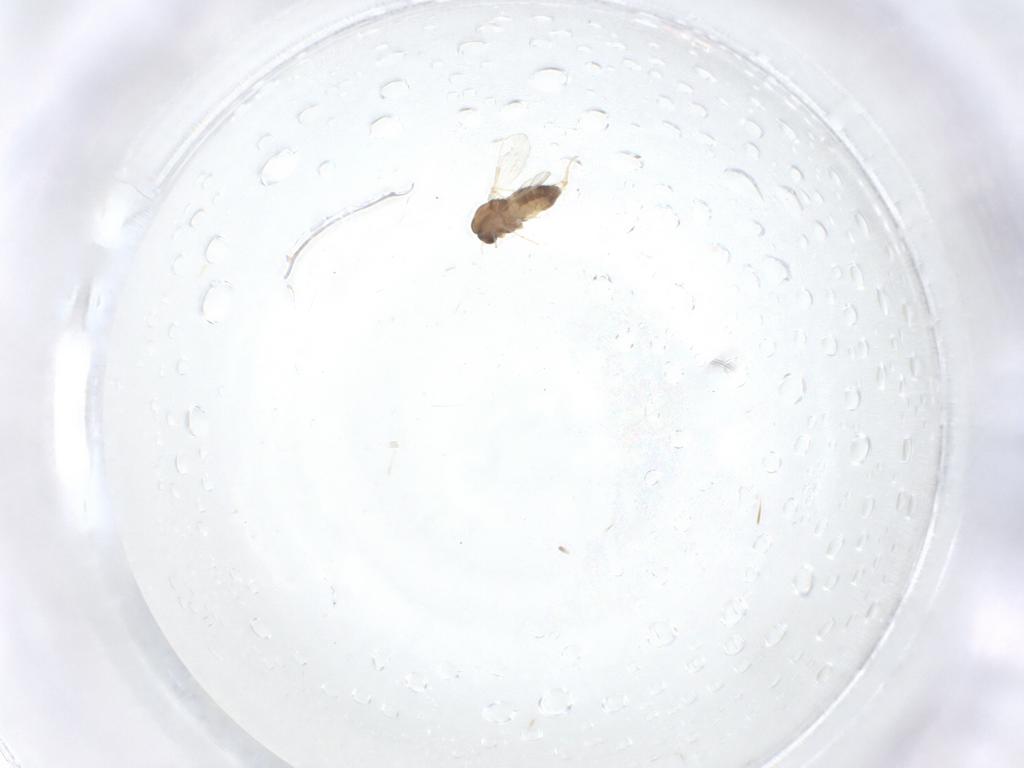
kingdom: Animalia
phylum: Arthropoda
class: Insecta
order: Diptera
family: Chironomidae
